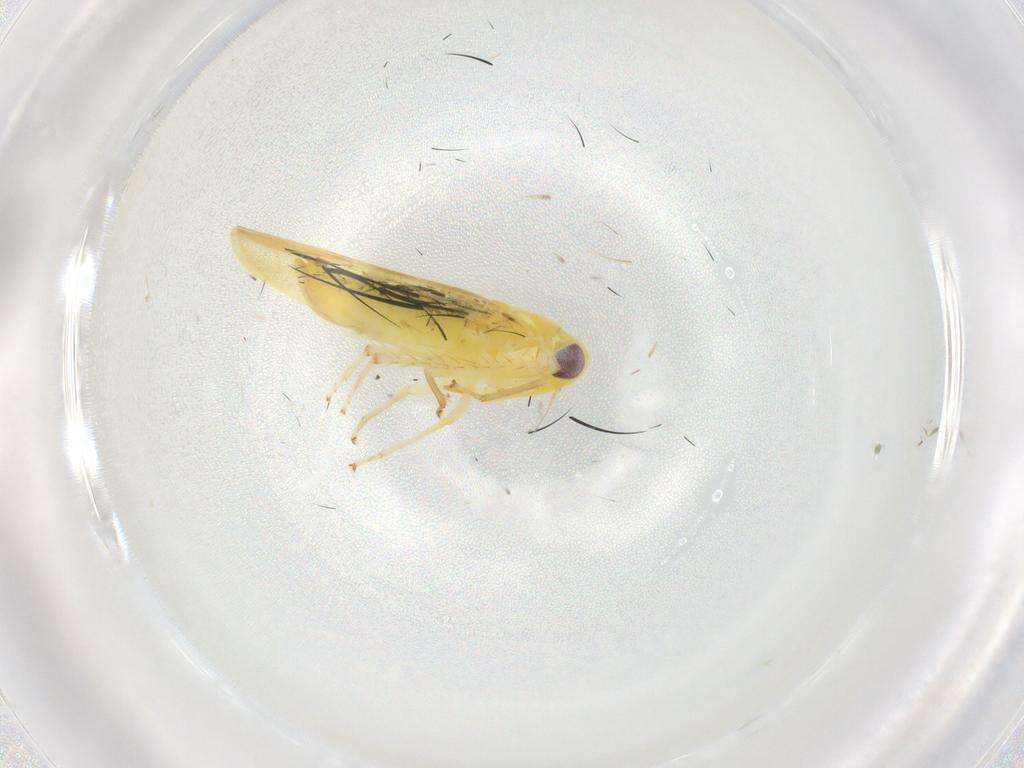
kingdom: Animalia
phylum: Arthropoda
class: Insecta
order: Hemiptera
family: Cicadellidae
